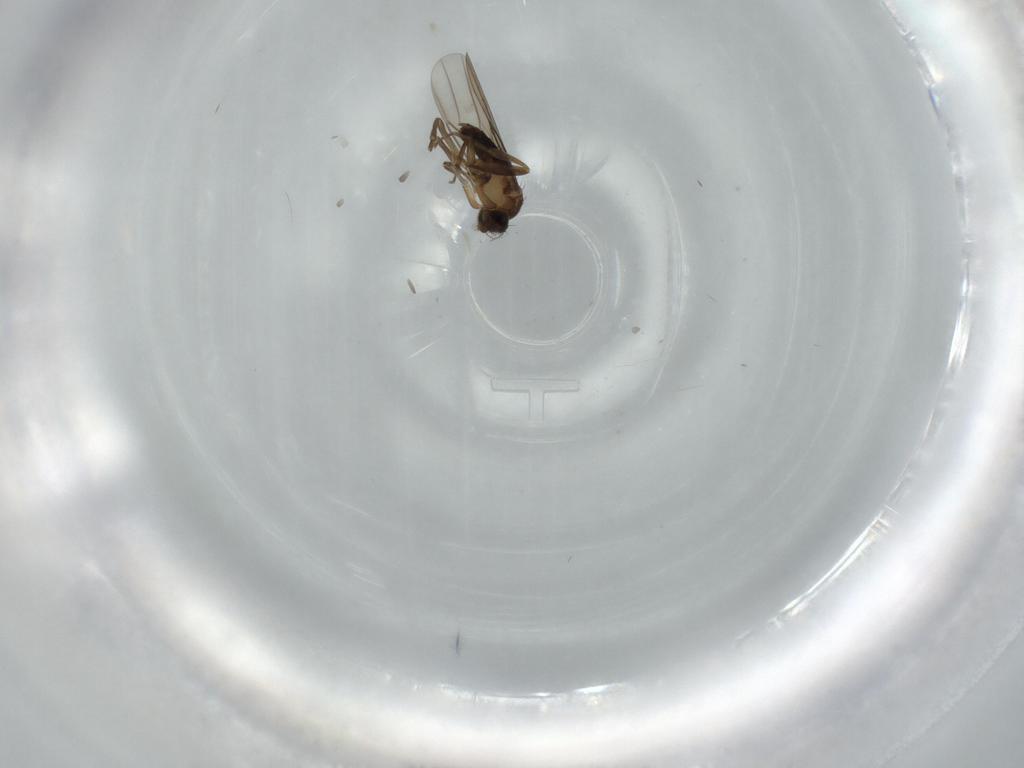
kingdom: Animalia
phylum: Arthropoda
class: Insecta
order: Diptera
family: Phoridae
